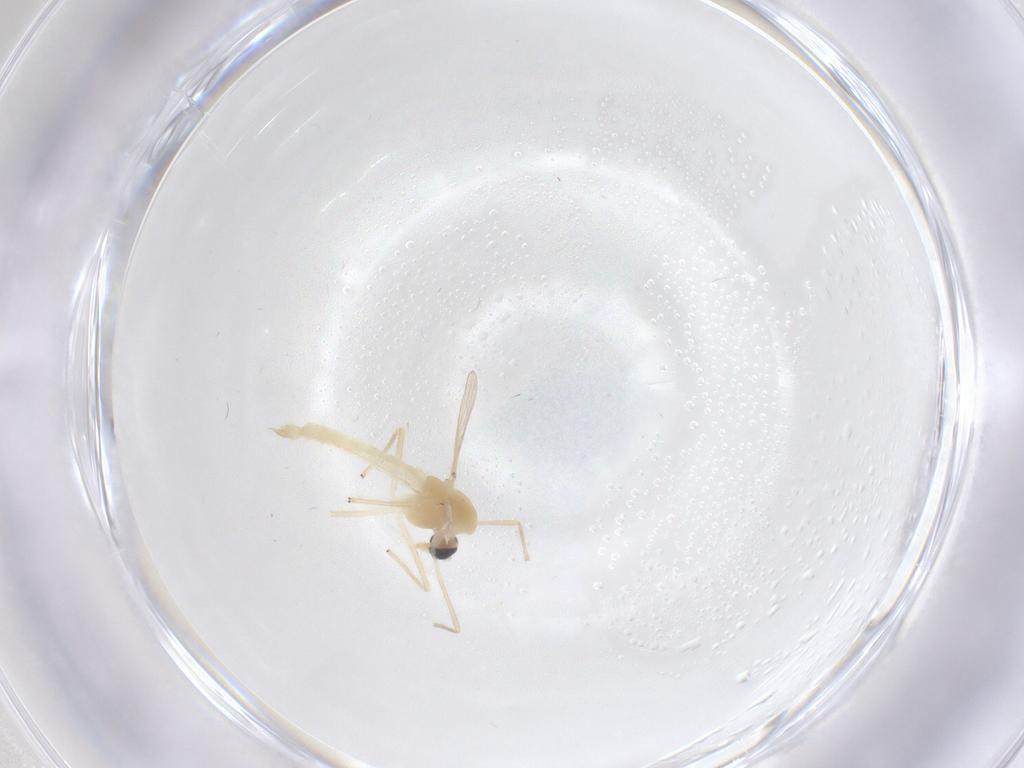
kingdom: Animalia
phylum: Arthropoda
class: Insecta
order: Diptera
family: Chironomidae
